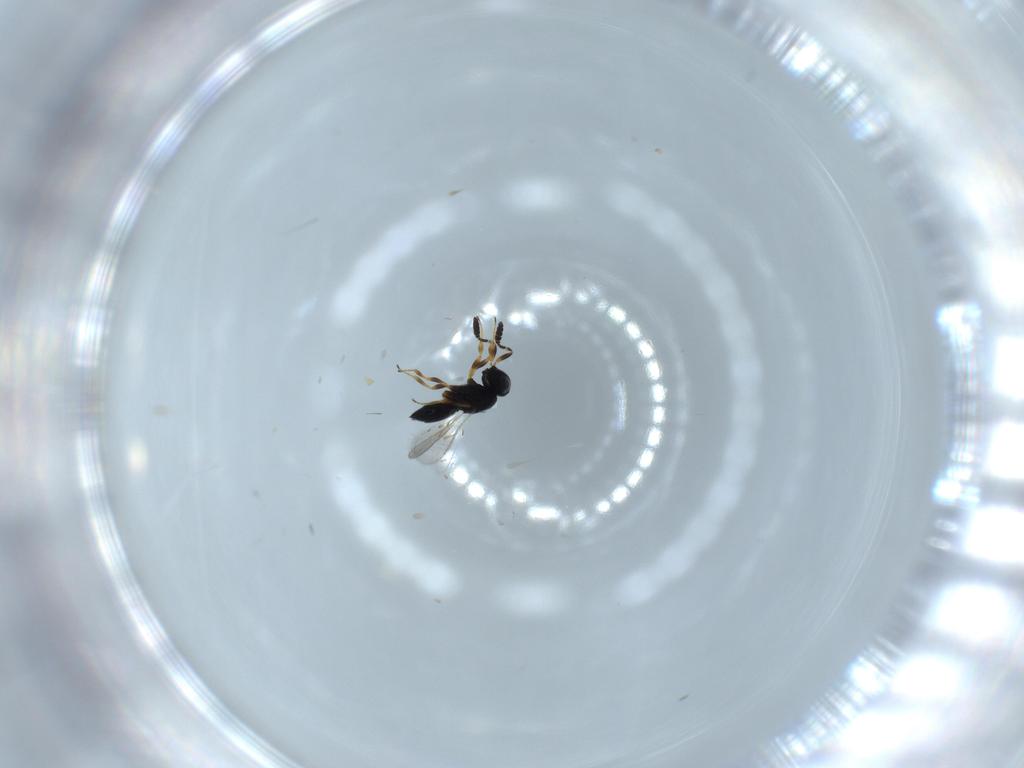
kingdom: Animalia
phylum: Arthropoda
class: Insecta
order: Hymenoptera
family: Scelionidae
